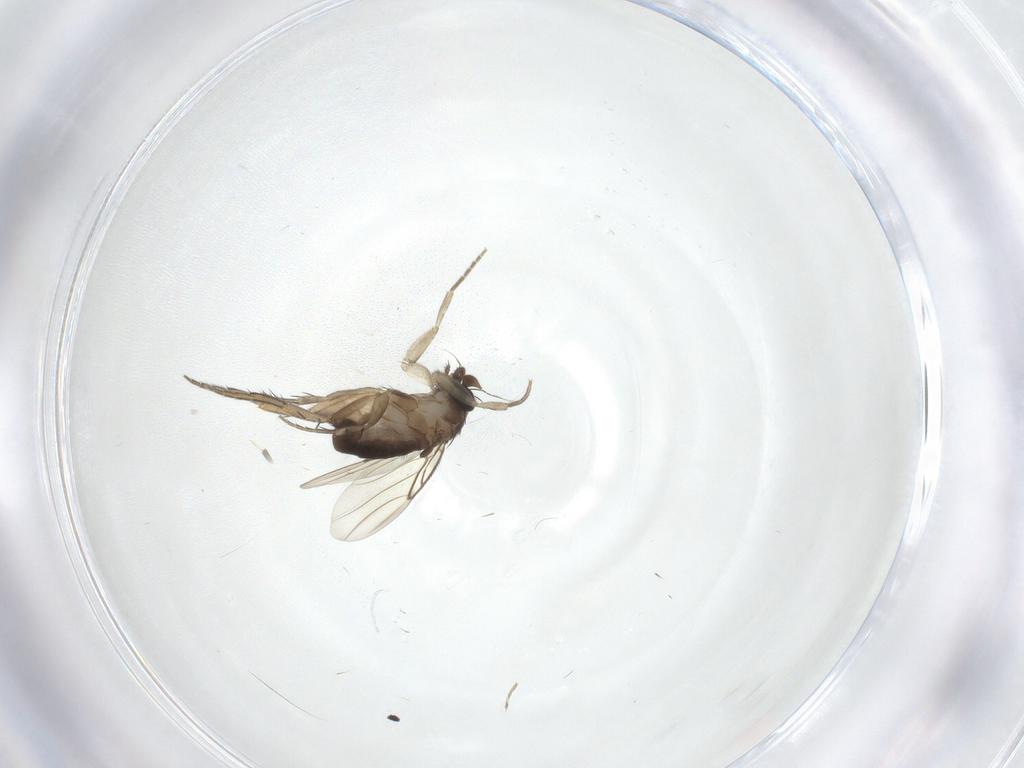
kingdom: Animalia
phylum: Arthropoda
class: Insecta
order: Diptera
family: Phoridae
